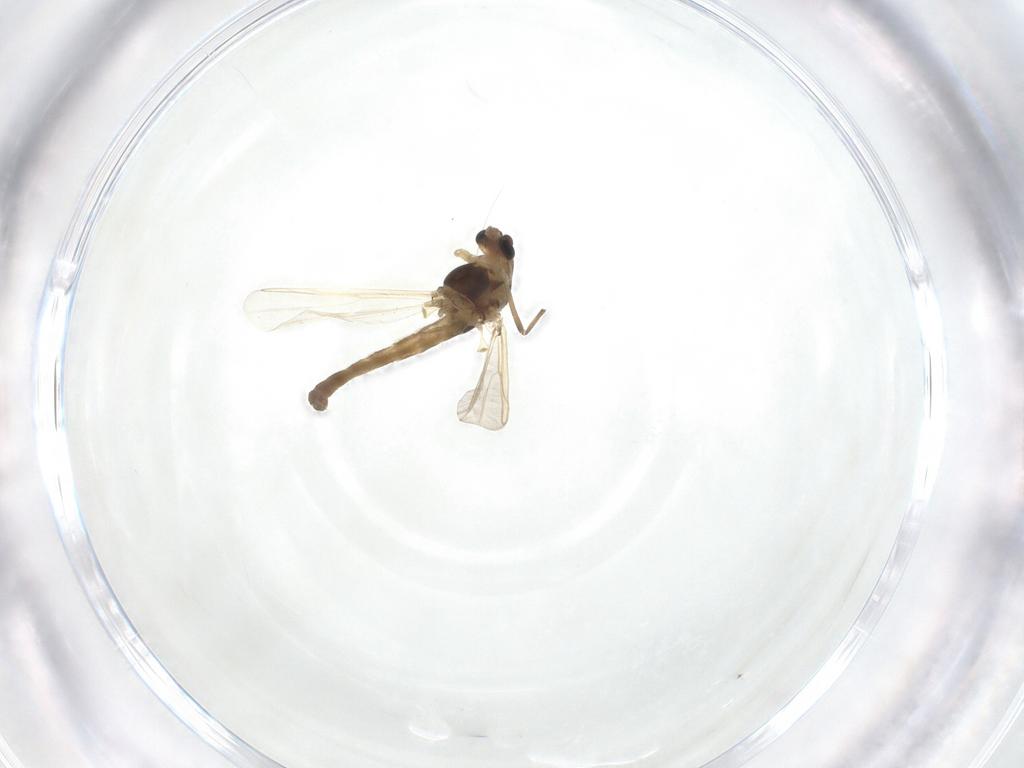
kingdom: Animalia
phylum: Arthropoda
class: Insecta
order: Diptera
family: Chironomidae
